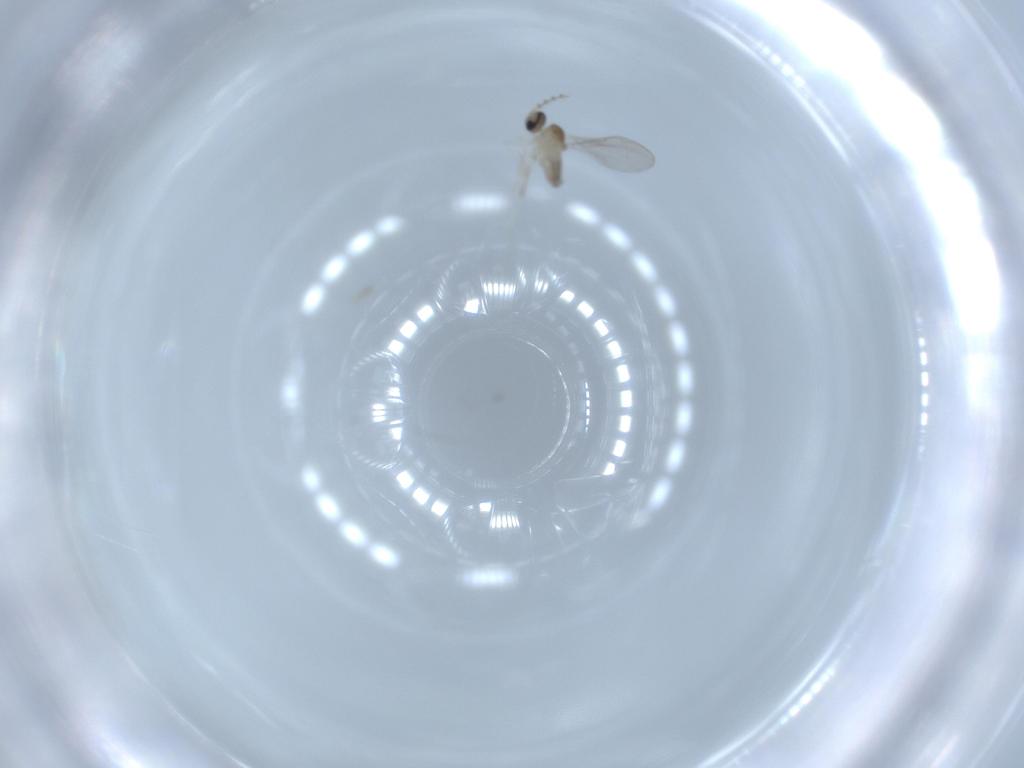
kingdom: Animalia
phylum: Arthropoda
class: Insecta
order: Diptera
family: Cecidomyiidae
